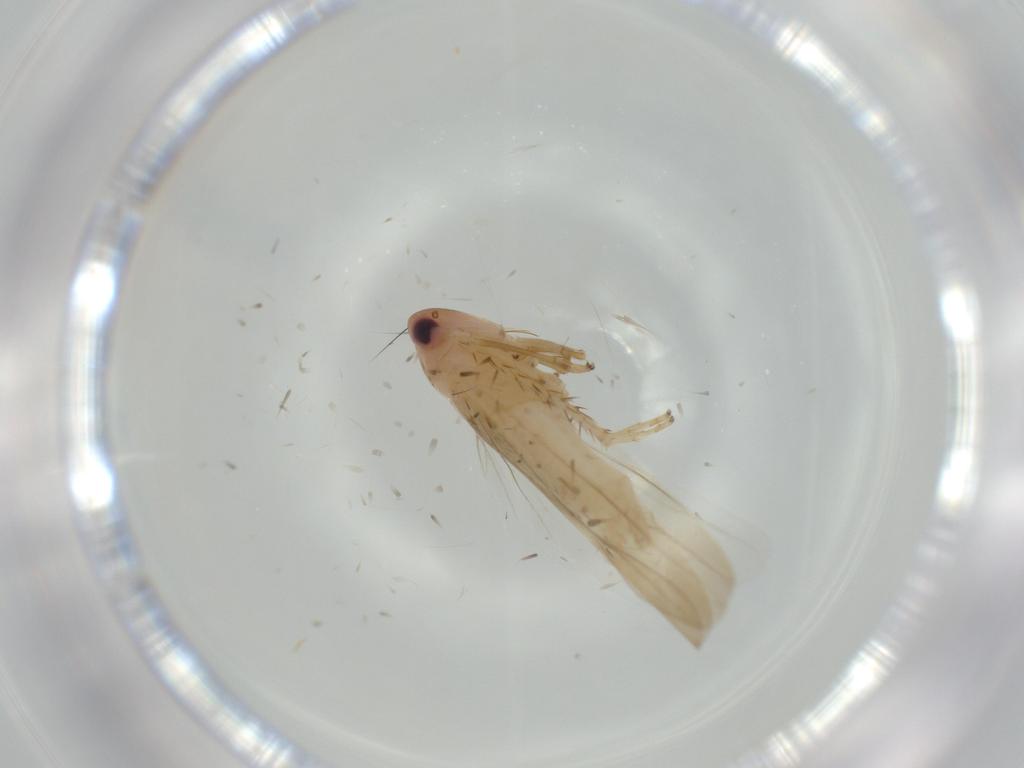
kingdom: Animalia
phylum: Arthropoda
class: Insecta
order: Hemiptera
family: Cicadellidae
